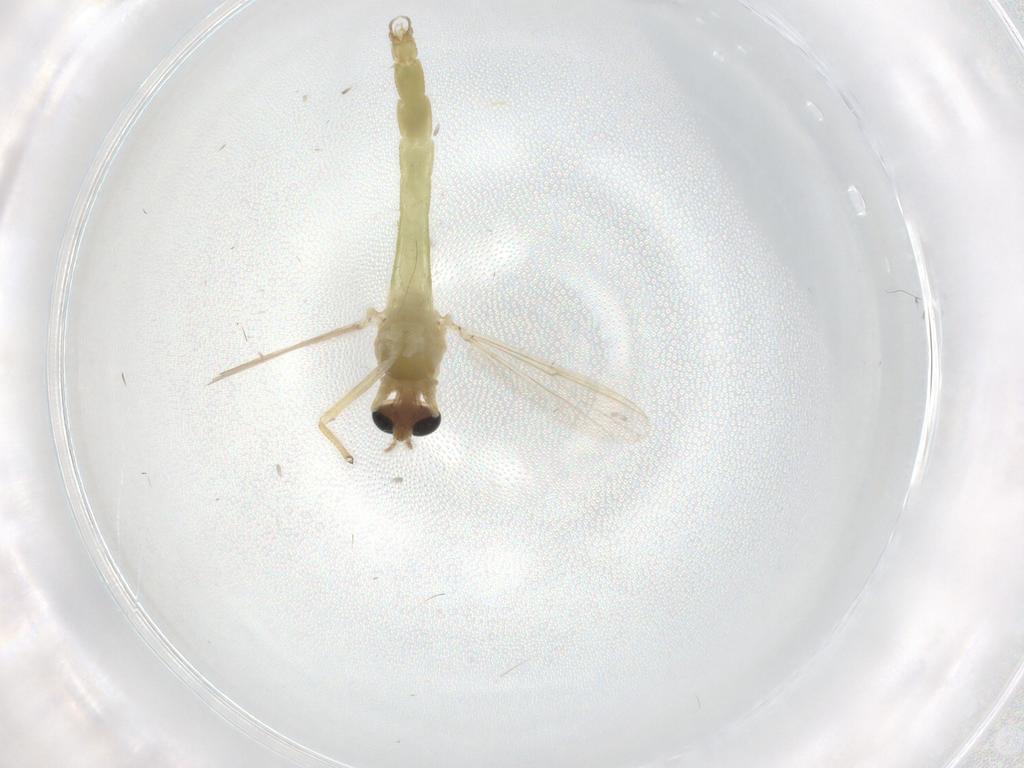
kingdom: Animalia
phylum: Arthropoda
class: Insecta
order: Diptera
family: Chironomidae
